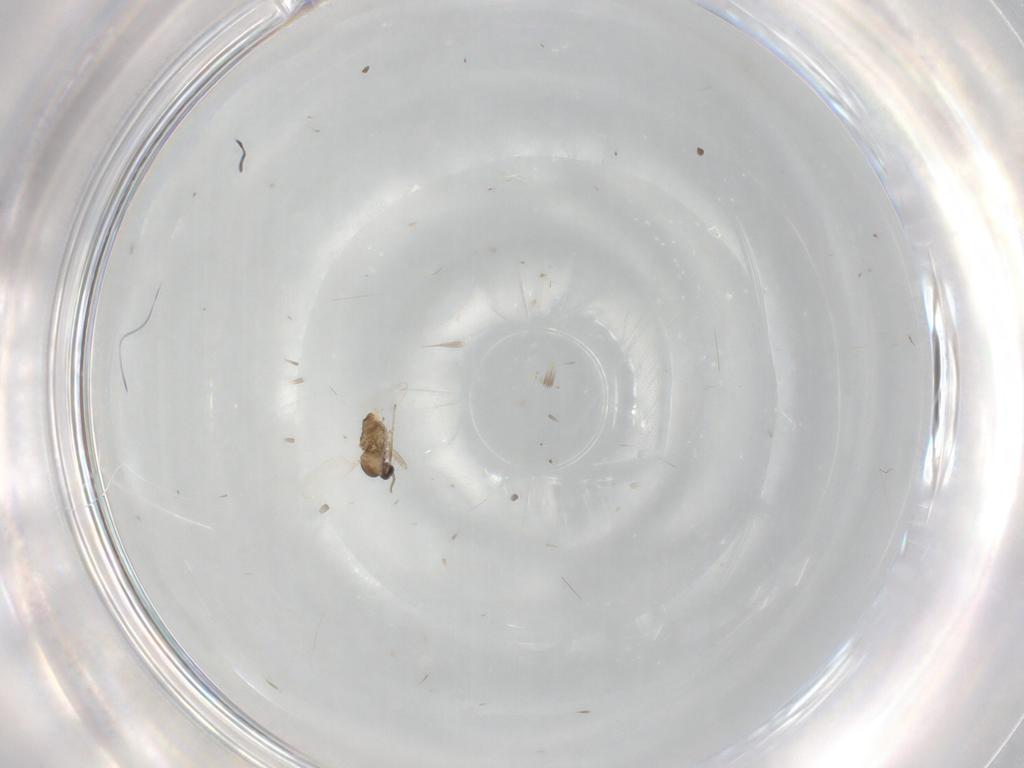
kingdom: Animalia
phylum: Arthropoda
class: Insecta
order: Diptera
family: Cecidomyiidae
